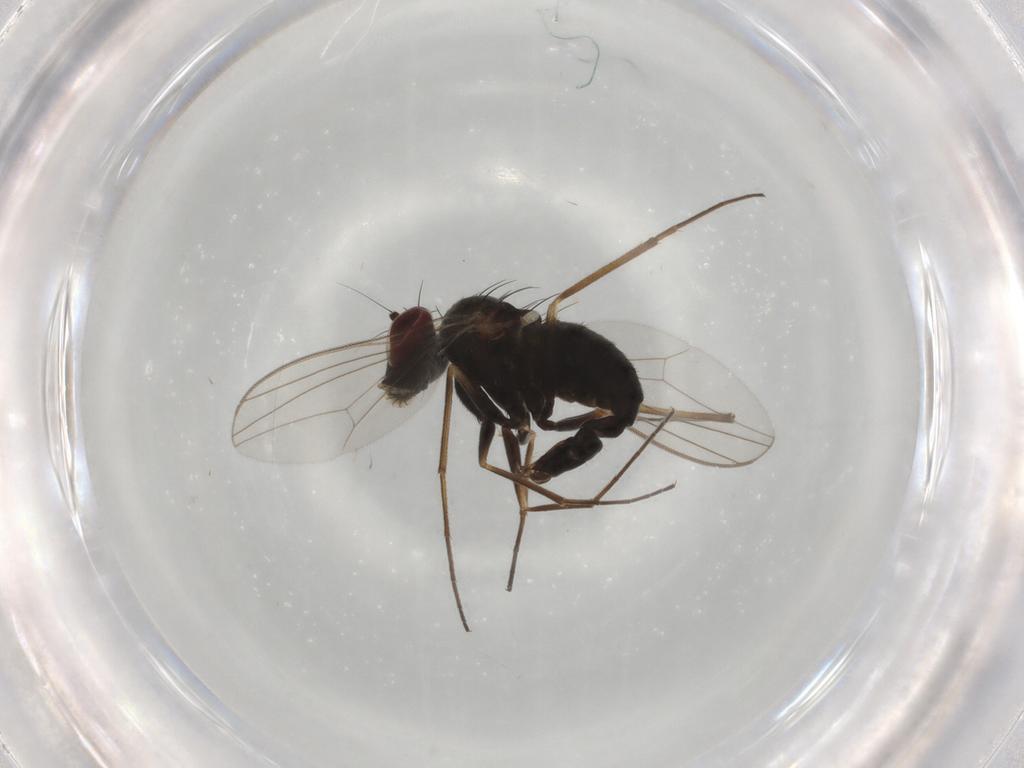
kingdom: Animalia
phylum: Arthropoda
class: Insecta
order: Diptera
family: Dolichopodidae
